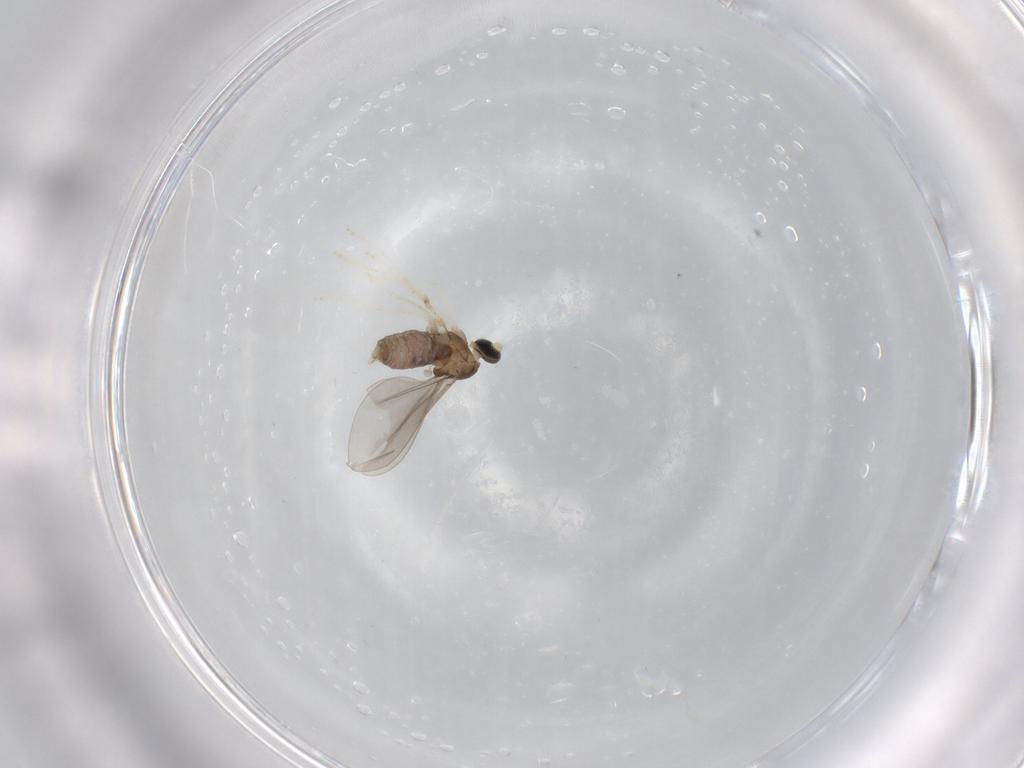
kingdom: Animalia
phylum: Arthropoda
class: Insecta
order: Diptera
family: Cecidomyiidae
